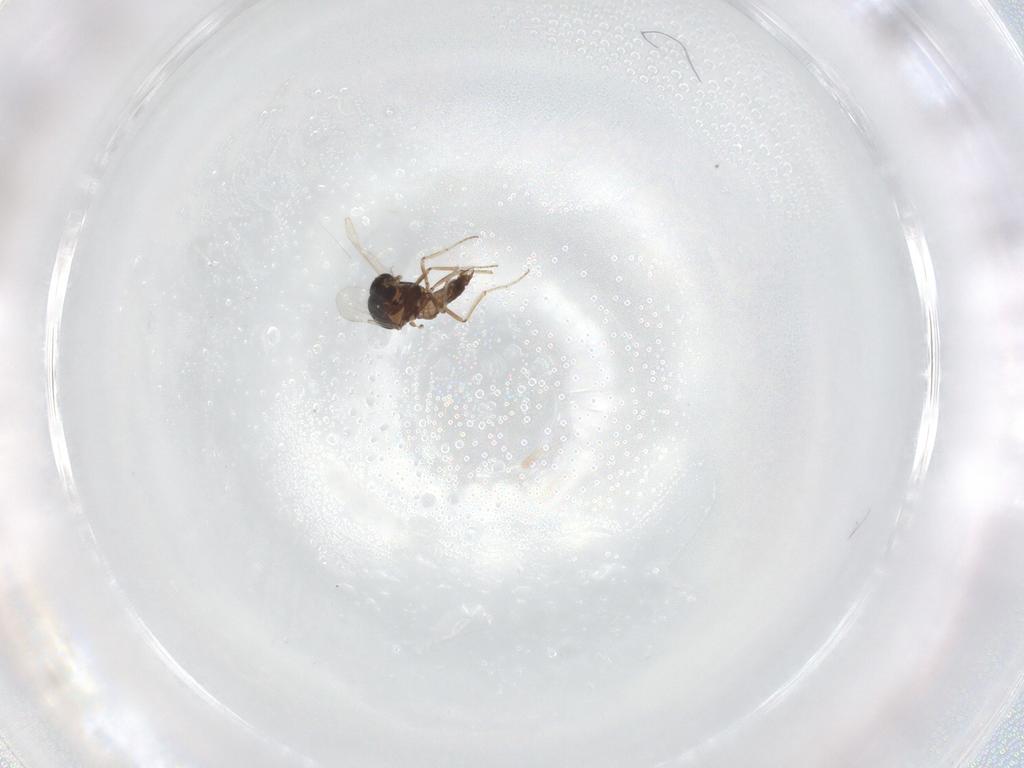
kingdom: Animalia
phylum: Arthropoda
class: Insecta
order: Diptera
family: Ceratopogonidae
